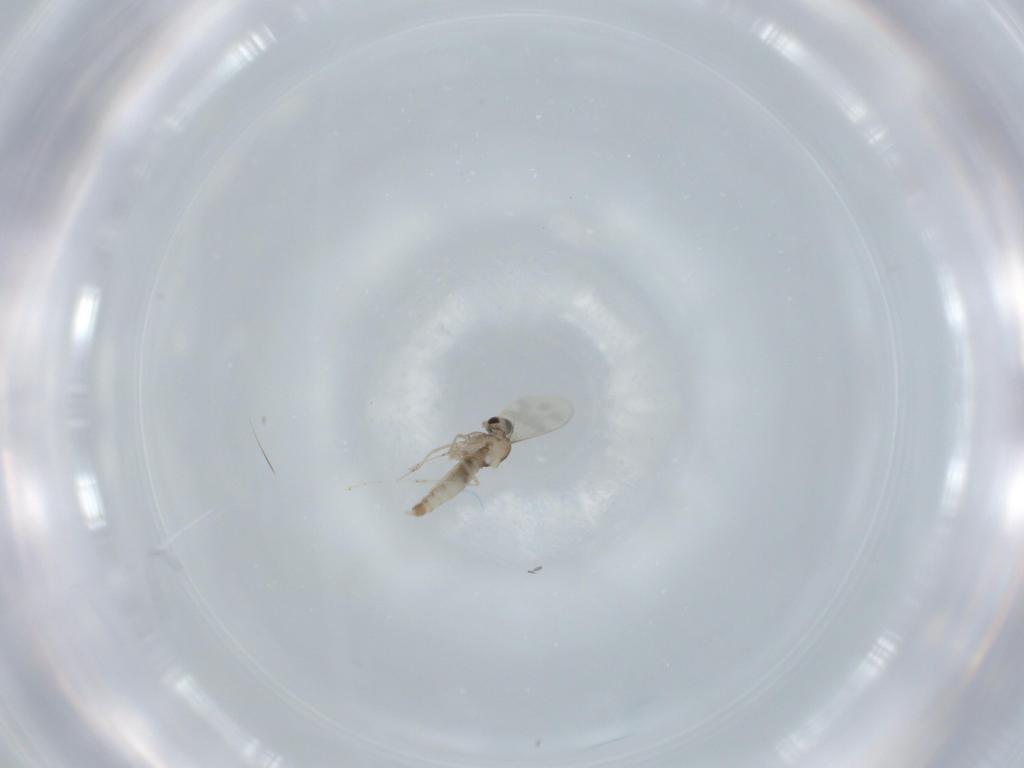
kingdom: Animalia
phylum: Arthropoda
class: Insecta
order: Diptera
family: Cecidomyiidae
